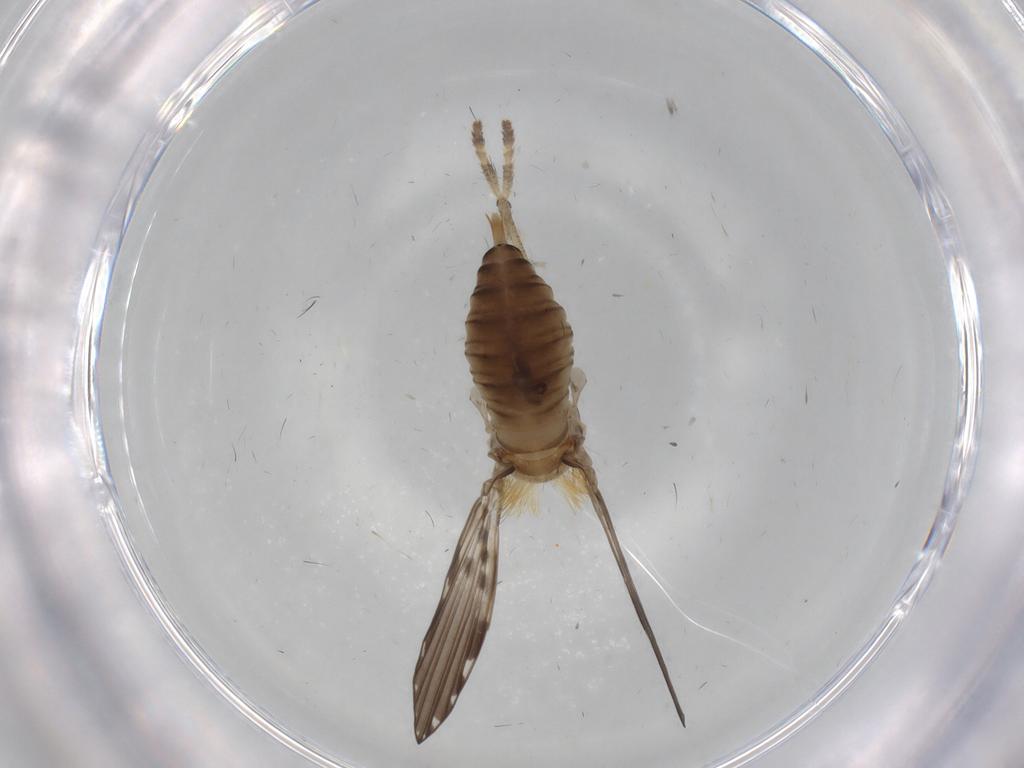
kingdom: Animalia
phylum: Arthropoda
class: Insecta
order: Diptera
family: Psychodidae
